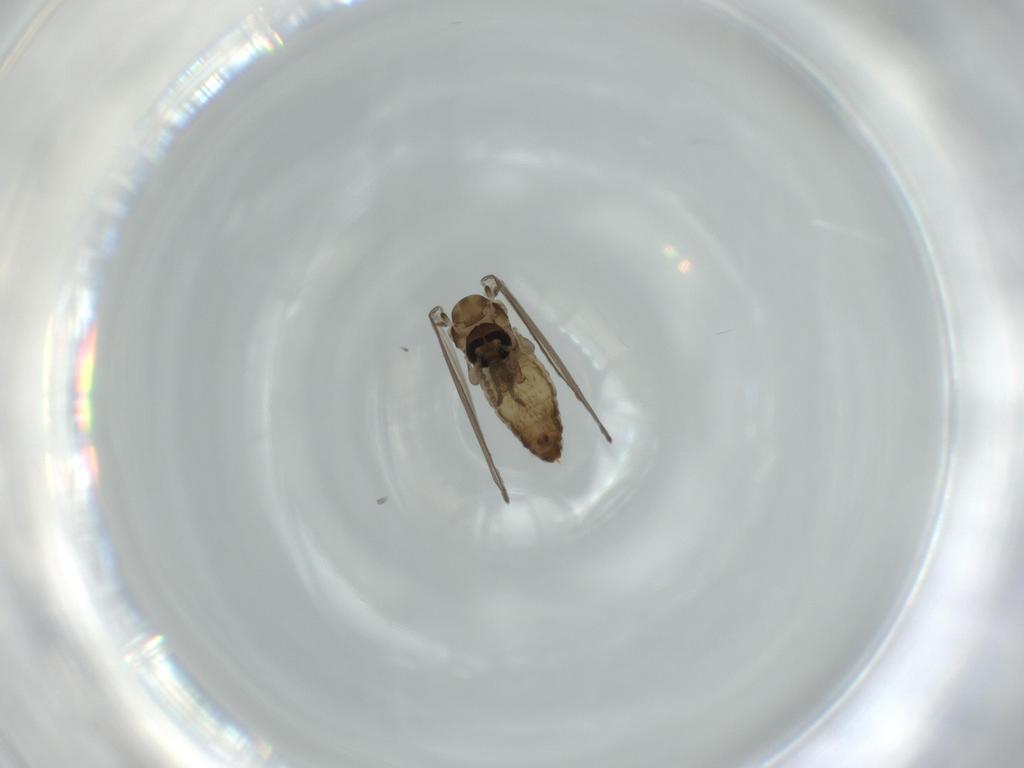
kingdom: Animalia
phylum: Arthropoda
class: Insecta
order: Diptera
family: Psychodidae
